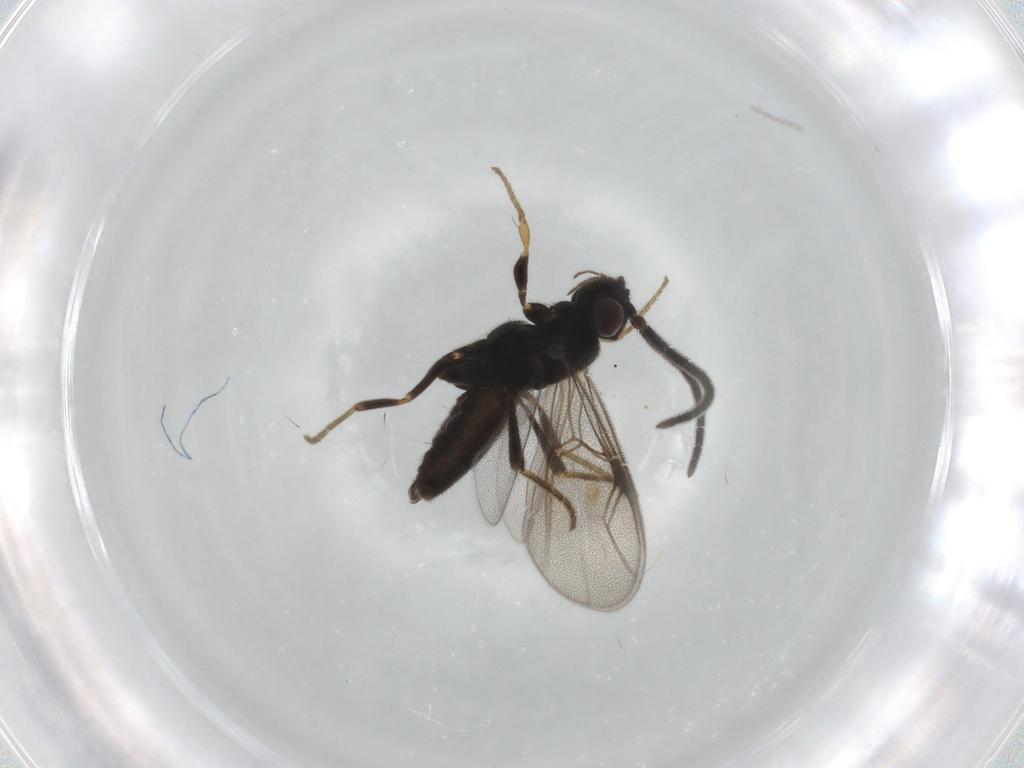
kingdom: Animalia
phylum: Arthropoda
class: Insecta
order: Hymenoptera
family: Dryinidae
